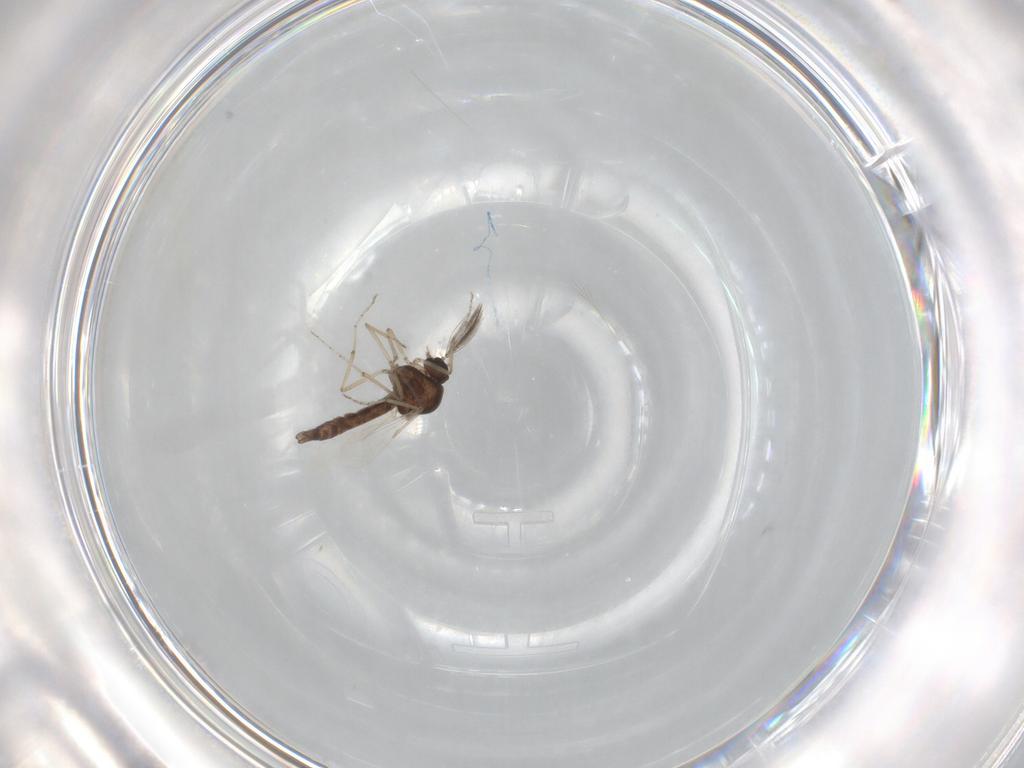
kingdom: Animalia
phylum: Arthropoda
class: Insecta
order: Diptera
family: Ceratopogonidae
